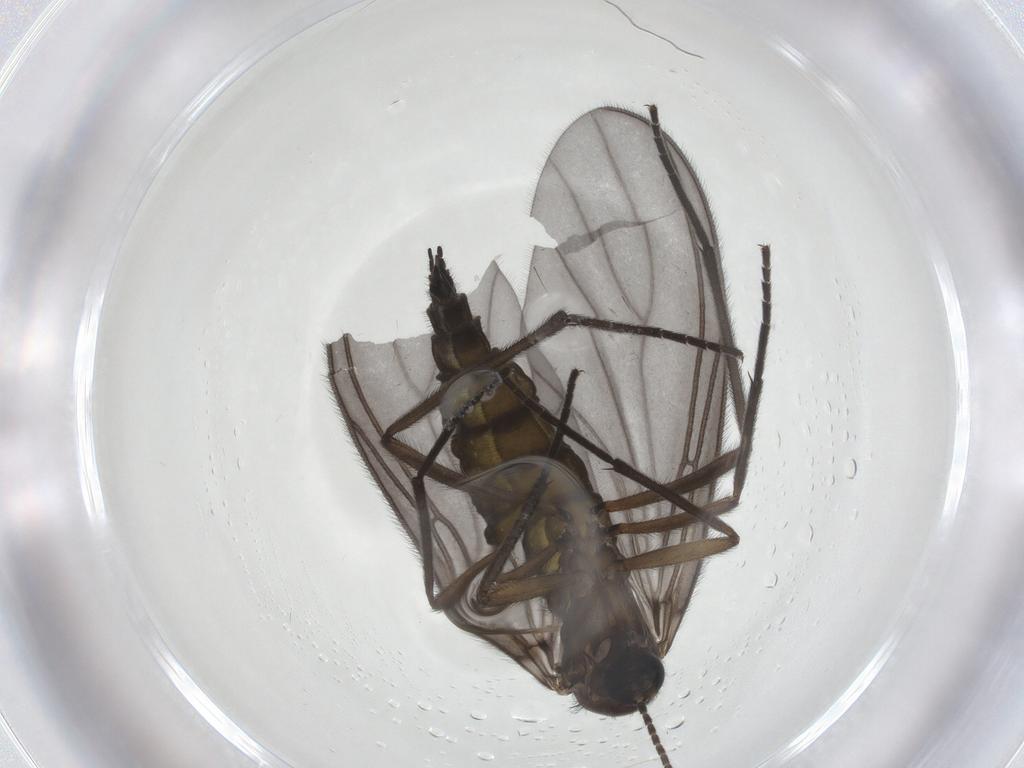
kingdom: Animalia
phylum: Arthropoda
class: Insecta
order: Diptera
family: Sciaridae
